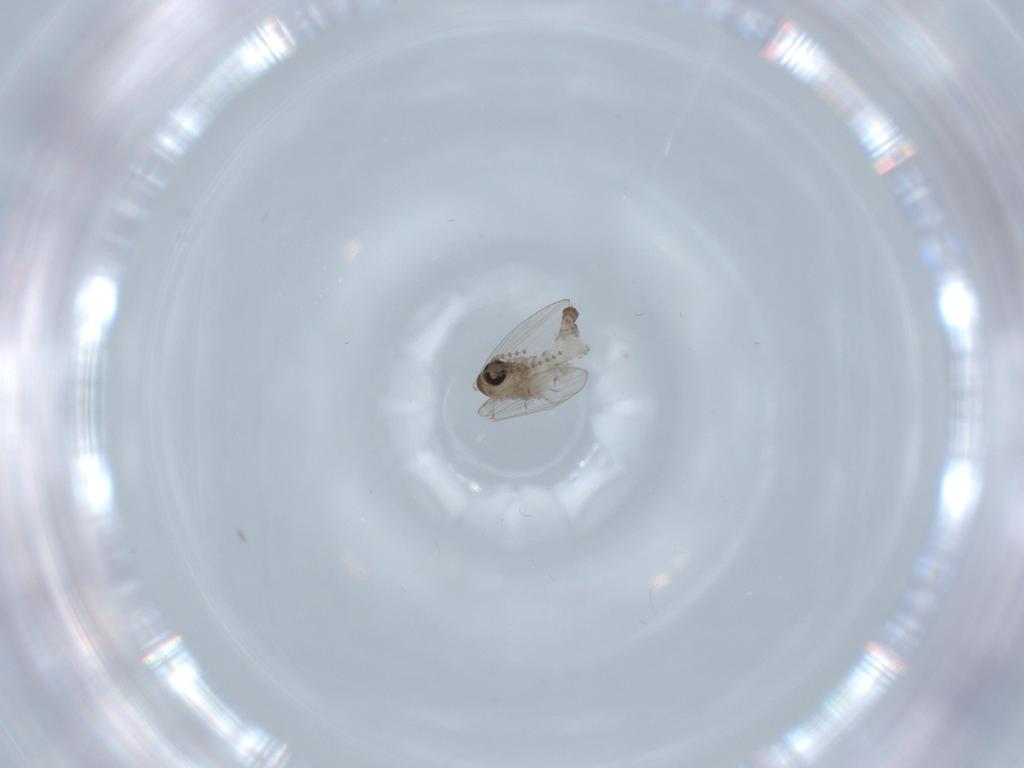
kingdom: Animalia
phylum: Arthropoda
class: Insecta
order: Diptera
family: Psychodidae
